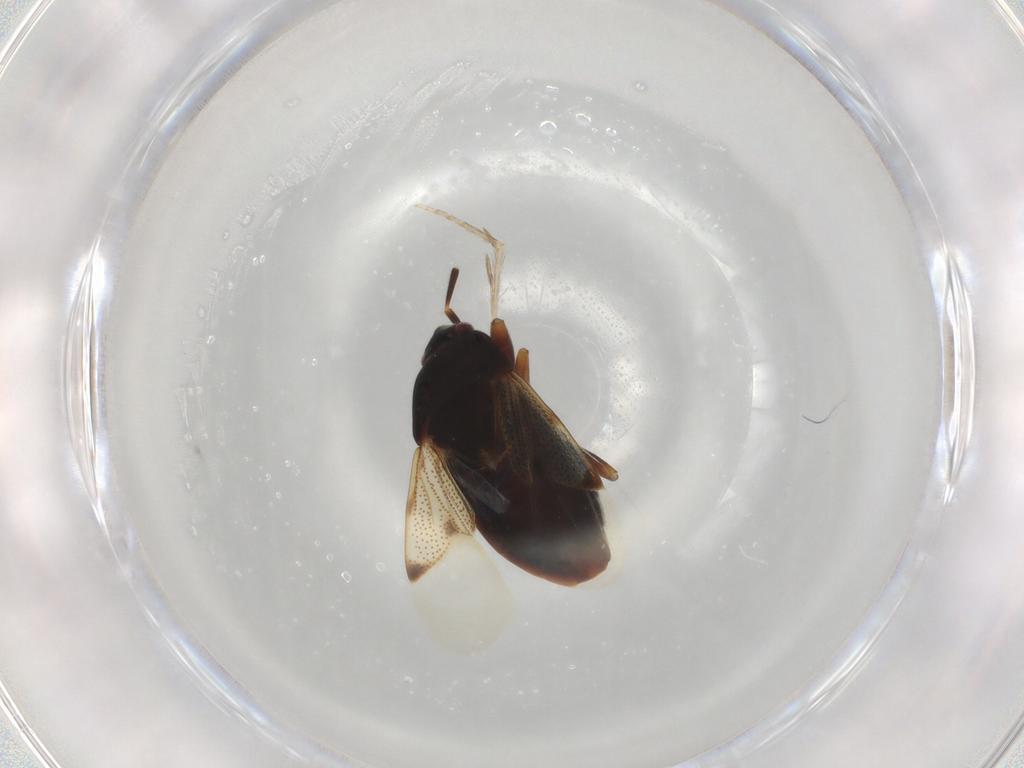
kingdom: Animalia
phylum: Arthropoda
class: Insecta
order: Hemiptera
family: Rhyparochromidae
